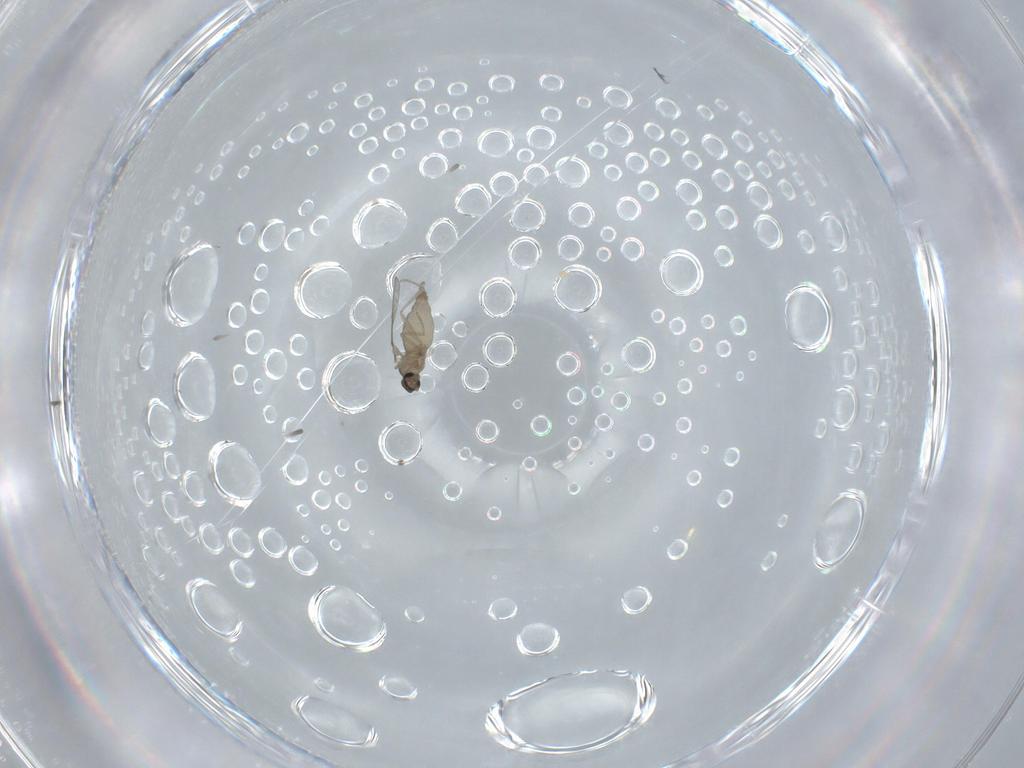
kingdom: Animalia
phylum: Arthropoda
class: Insecta
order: Diptera
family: Cecidomyiidae
